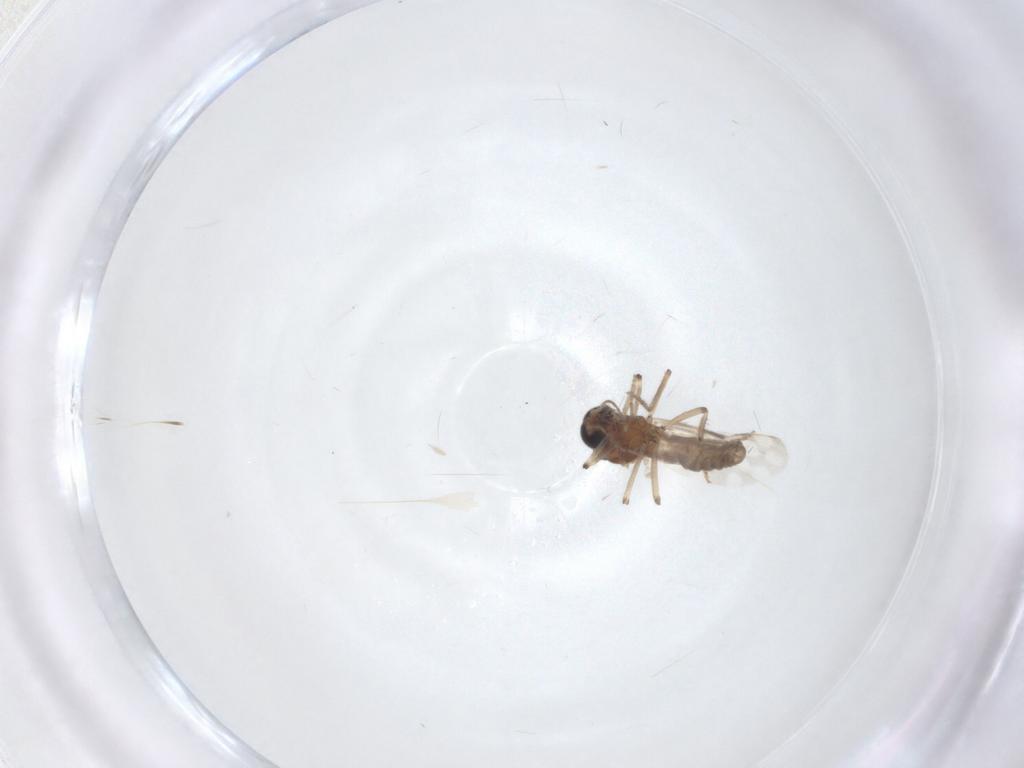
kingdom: Animalia
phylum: Arthropoda
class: Insecta
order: Diptera
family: Ceratopogonidae
